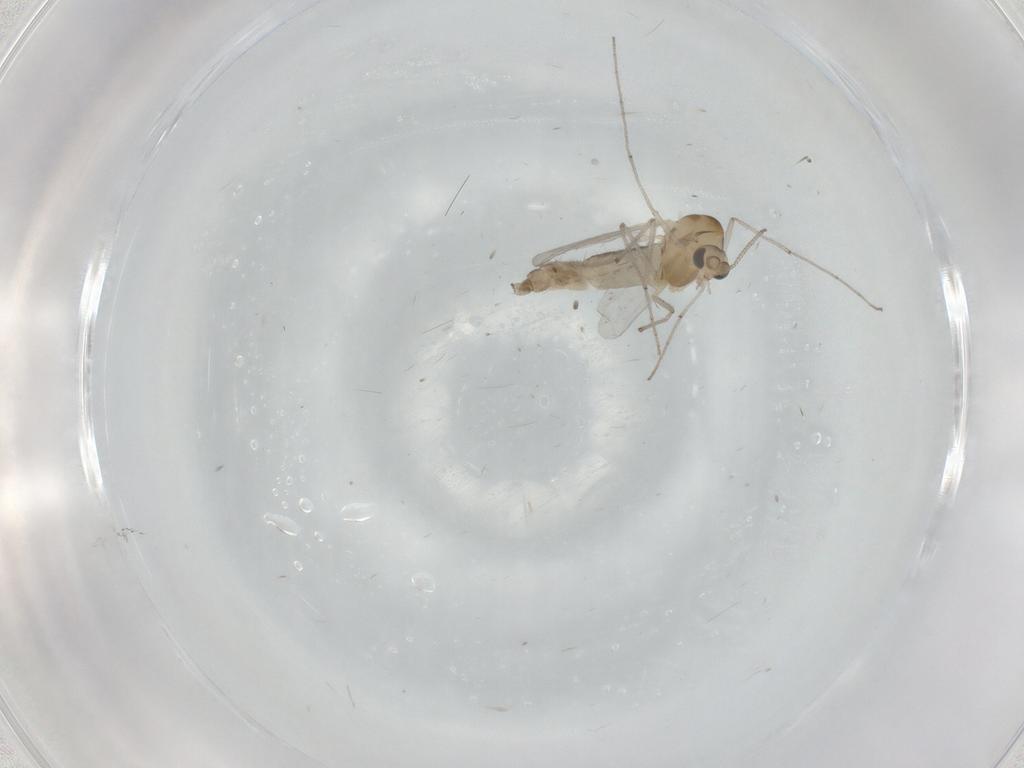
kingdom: Animalia
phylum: Arthropoda
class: Insecta
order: Diptera
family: Chironomidae
